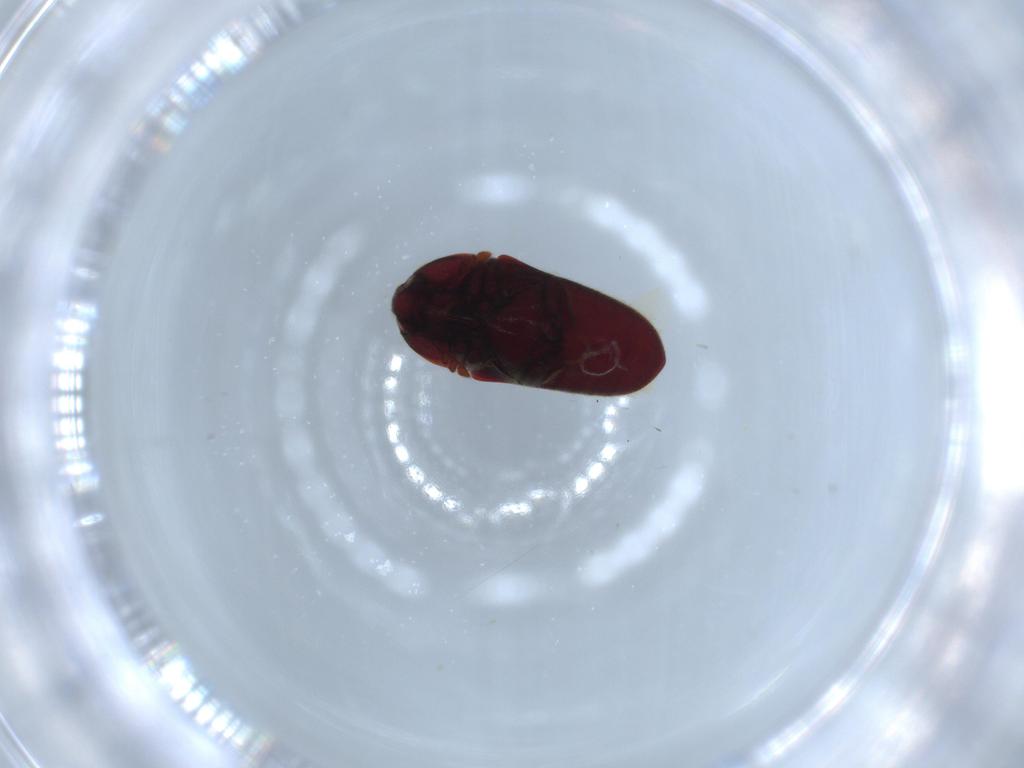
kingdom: Animalia
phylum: Arthropoda
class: Insecta
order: Coleoptera
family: Throscidae
